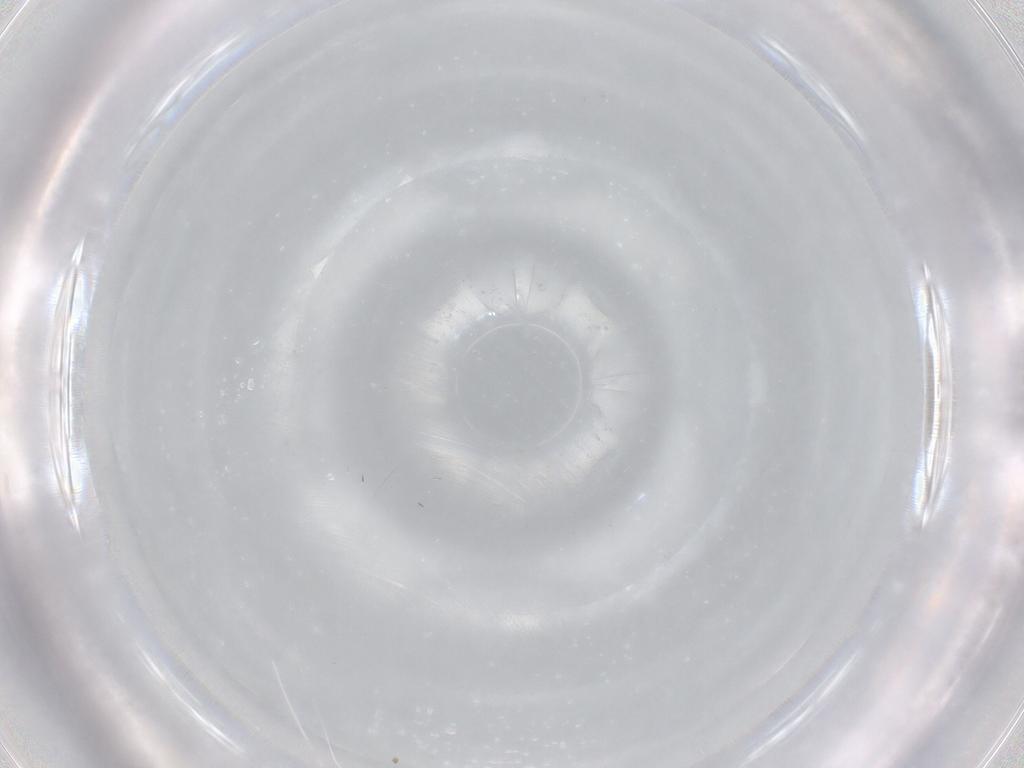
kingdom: Animalia
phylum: Arthropoda
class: Insecta
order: Diptera
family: Cecidomyiidae
